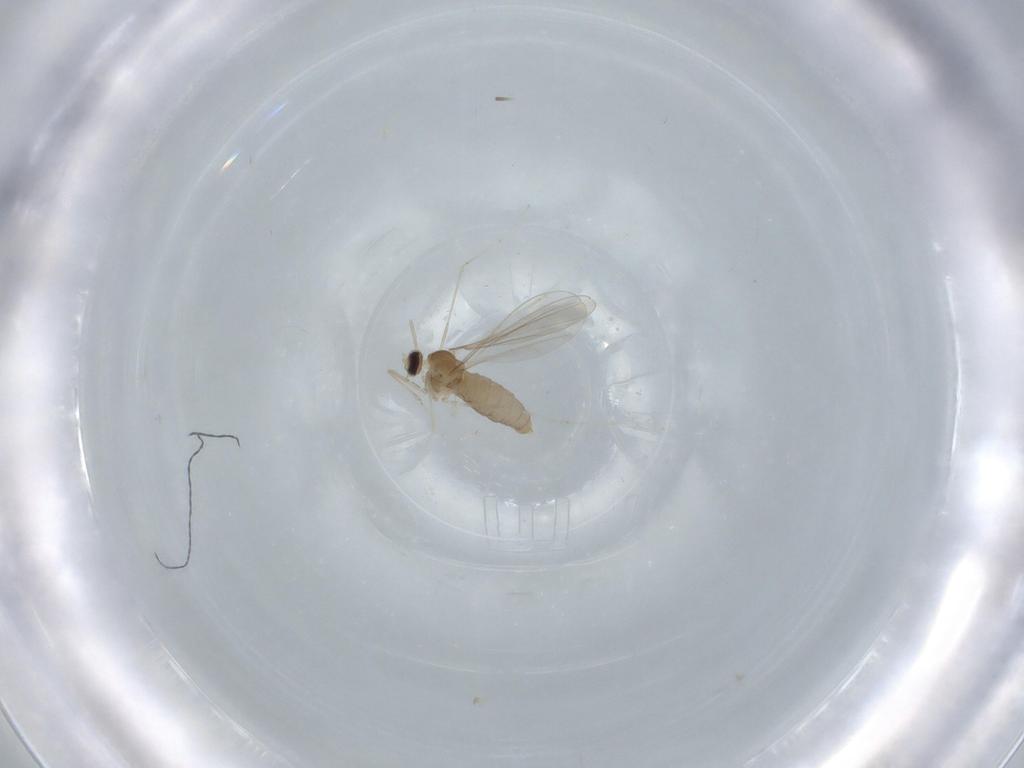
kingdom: Animalia
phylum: Arthropoda
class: Insecta
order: Diptera
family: Cecidomyiidae
